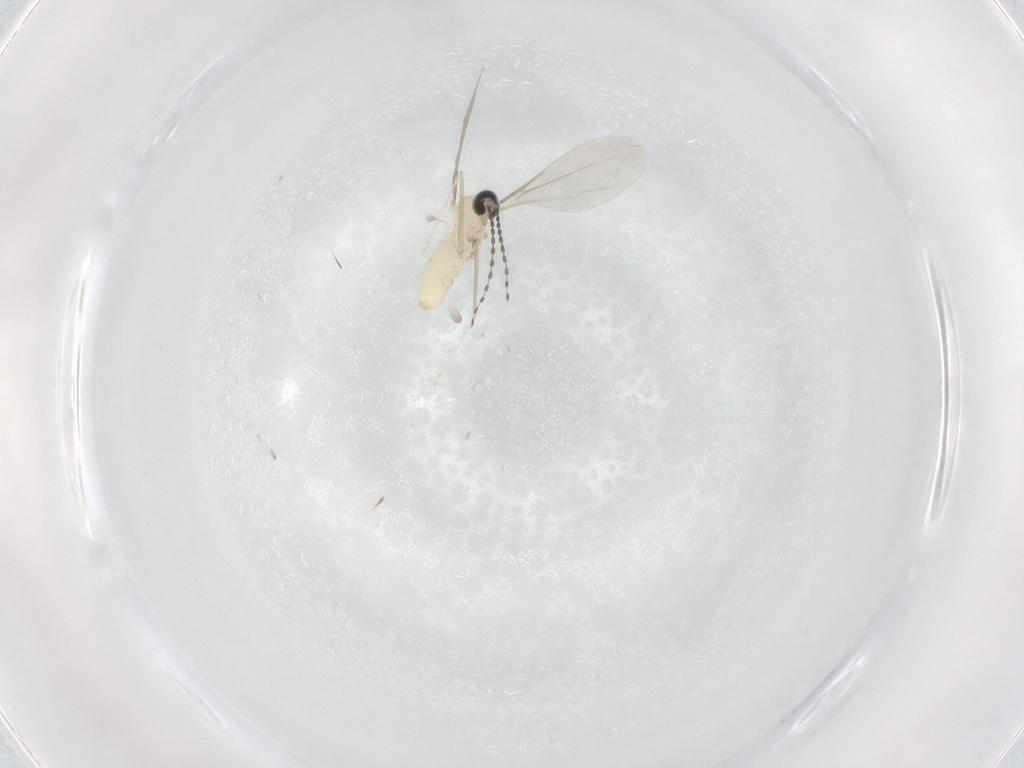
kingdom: Animalia
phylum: Arthropoda
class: Insecta
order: Diptera
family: Cecidomyiidae
